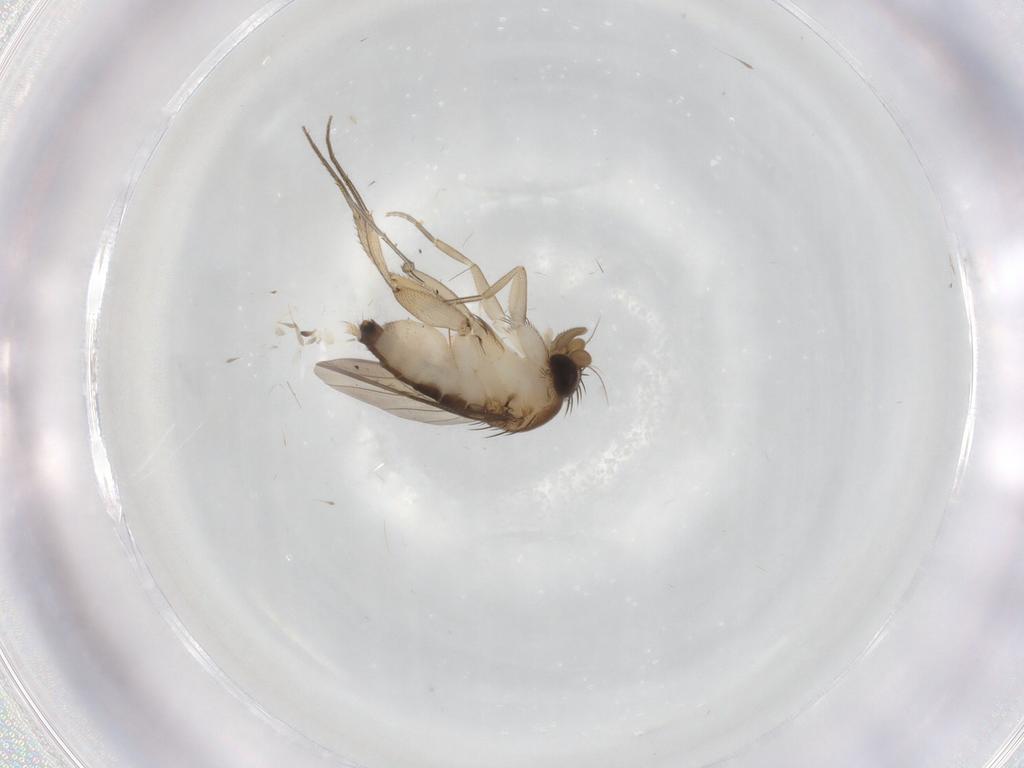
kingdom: Animalia
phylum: Arthropoda
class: Insecta
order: Diptera
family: Phoridae
